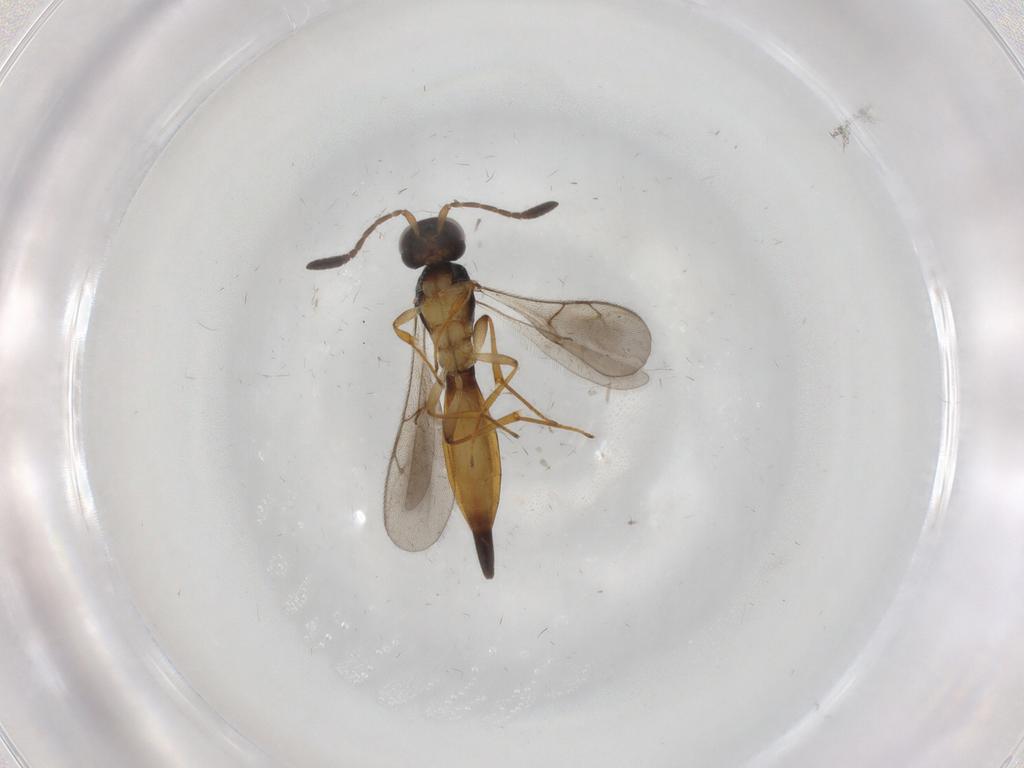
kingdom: Animalia
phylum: Arthropoda
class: Insecta
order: Hymenoptera
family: Scelionidae
